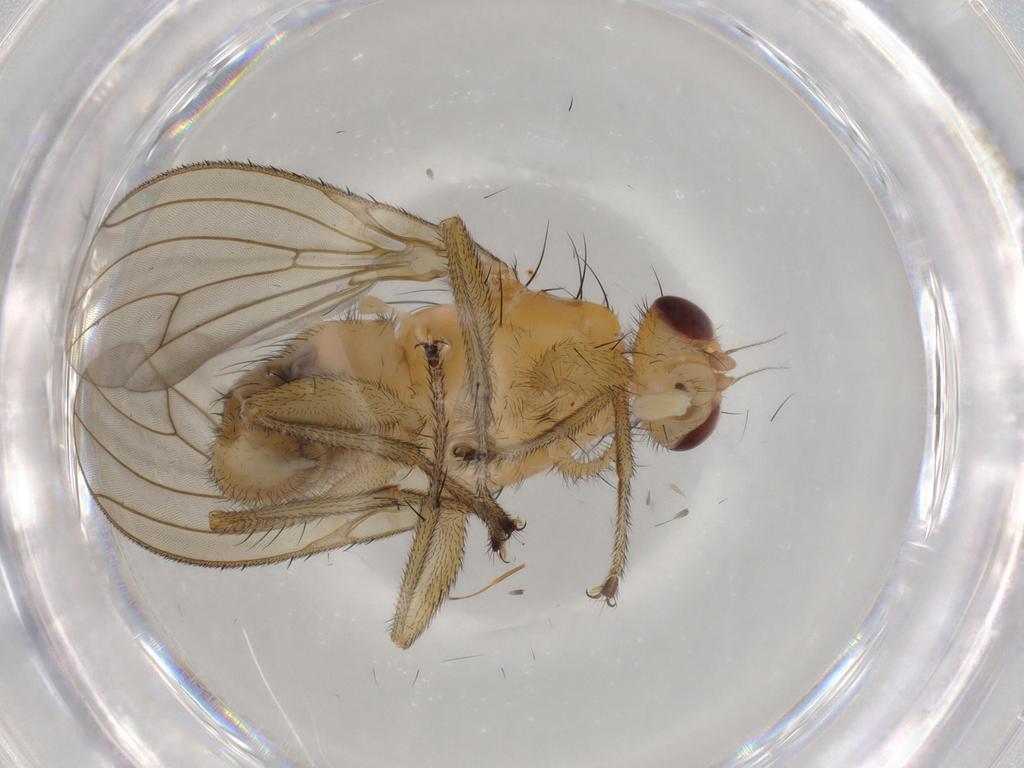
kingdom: Animalia
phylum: Arthropoda
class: Insecta
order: Diptera
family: Heleomyzidae
